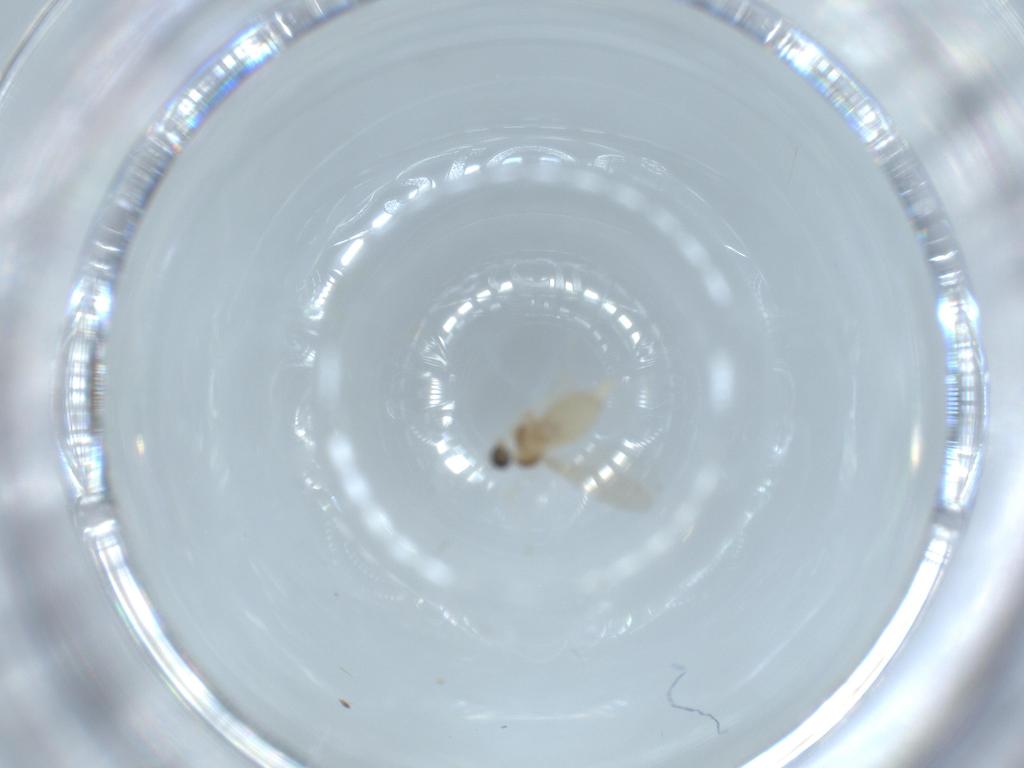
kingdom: Animalia
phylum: Arthropoda
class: Insecta
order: Diptera
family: Cecidomyiidae
